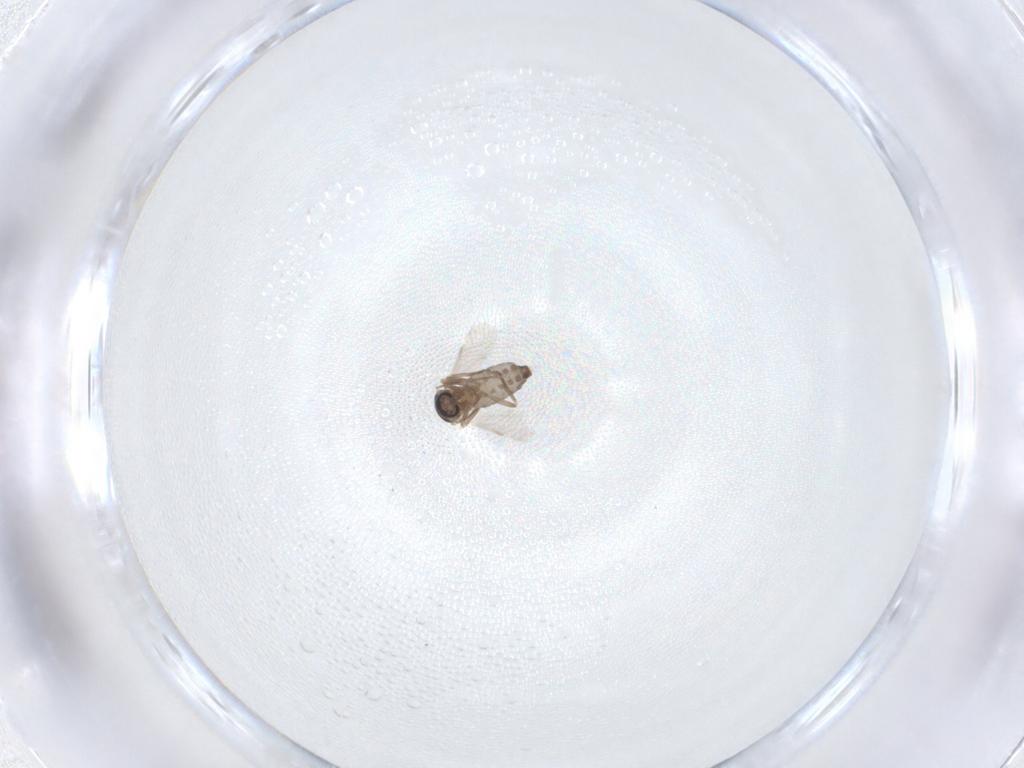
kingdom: Animalia
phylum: Arthropoda
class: Insecta
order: Diptera
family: Ceratopogonidae
